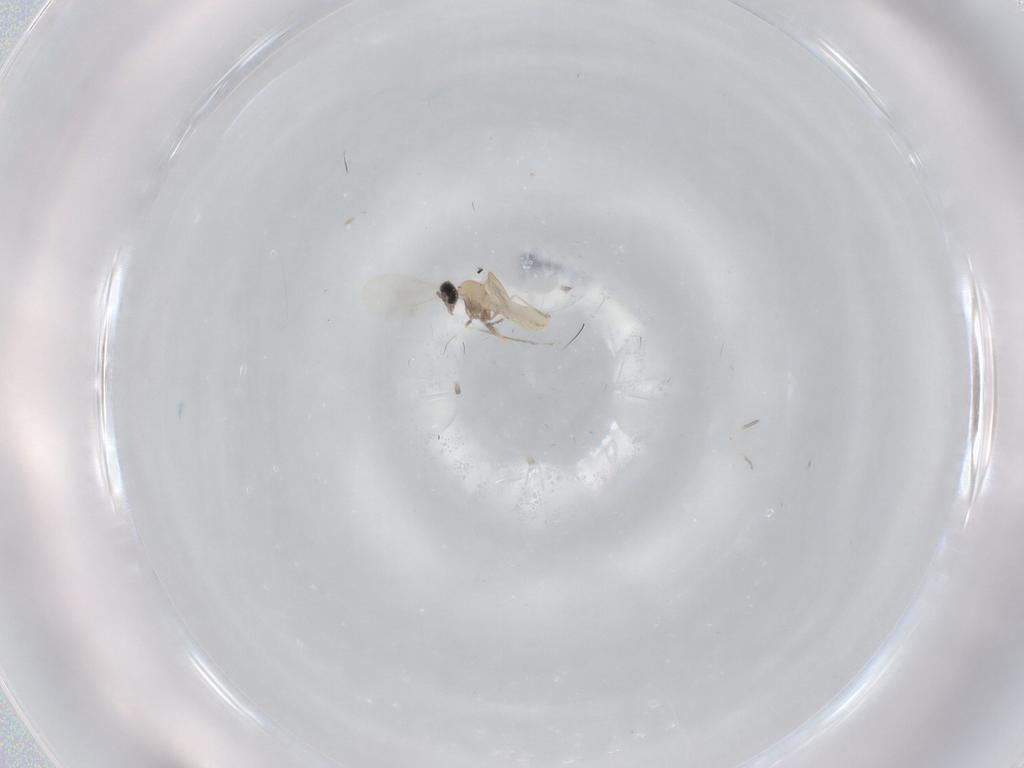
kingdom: Animalia
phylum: Arthropoda
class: Insecta
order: Diptera
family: Cecidomyiidae
